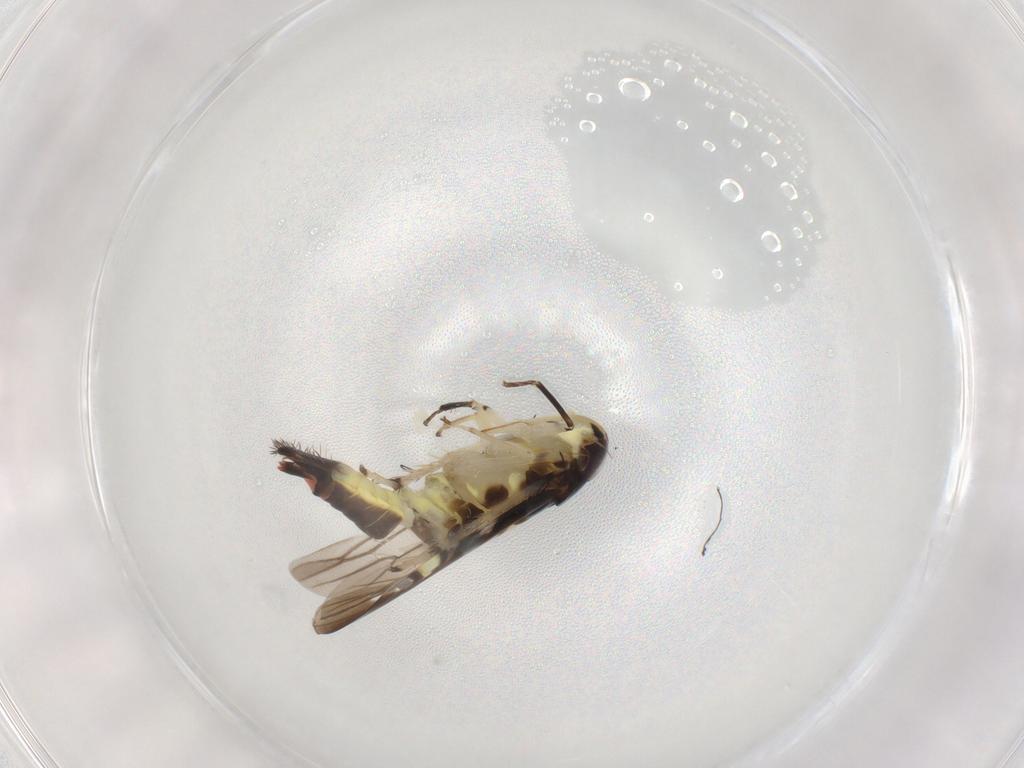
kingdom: Animalia
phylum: Arthropoda
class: Insecta
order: Hemiptera
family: Cicadellidae
